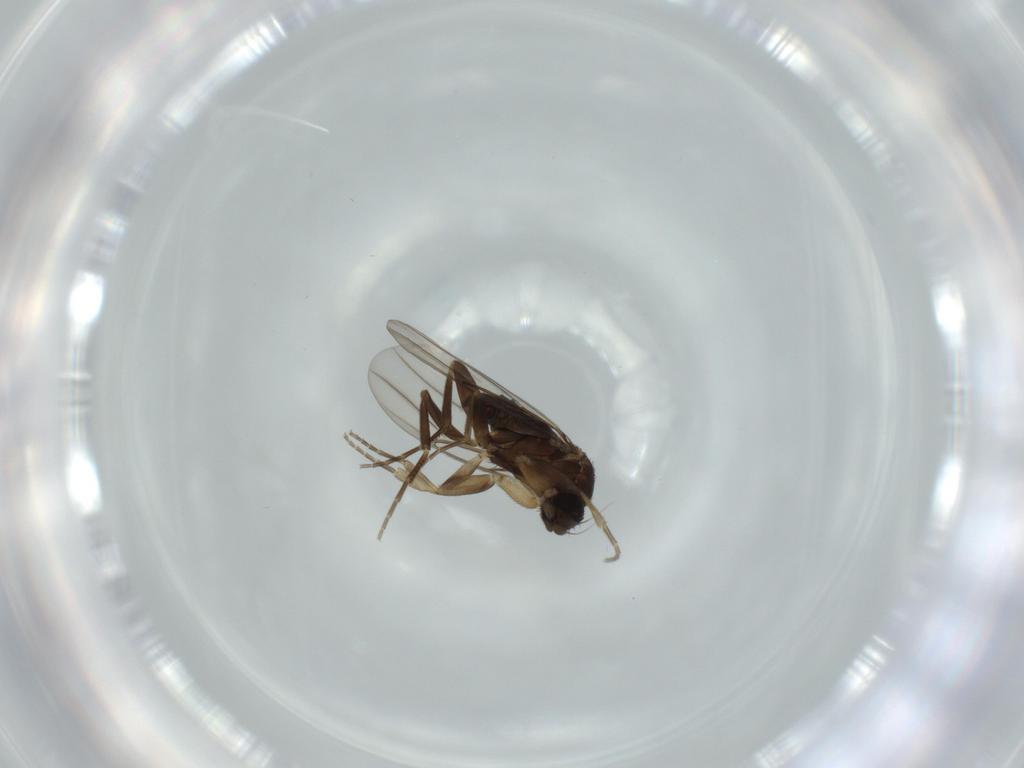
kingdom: Animalia
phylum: Arthropoda
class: Insecta
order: Diptera
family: Phoridae
